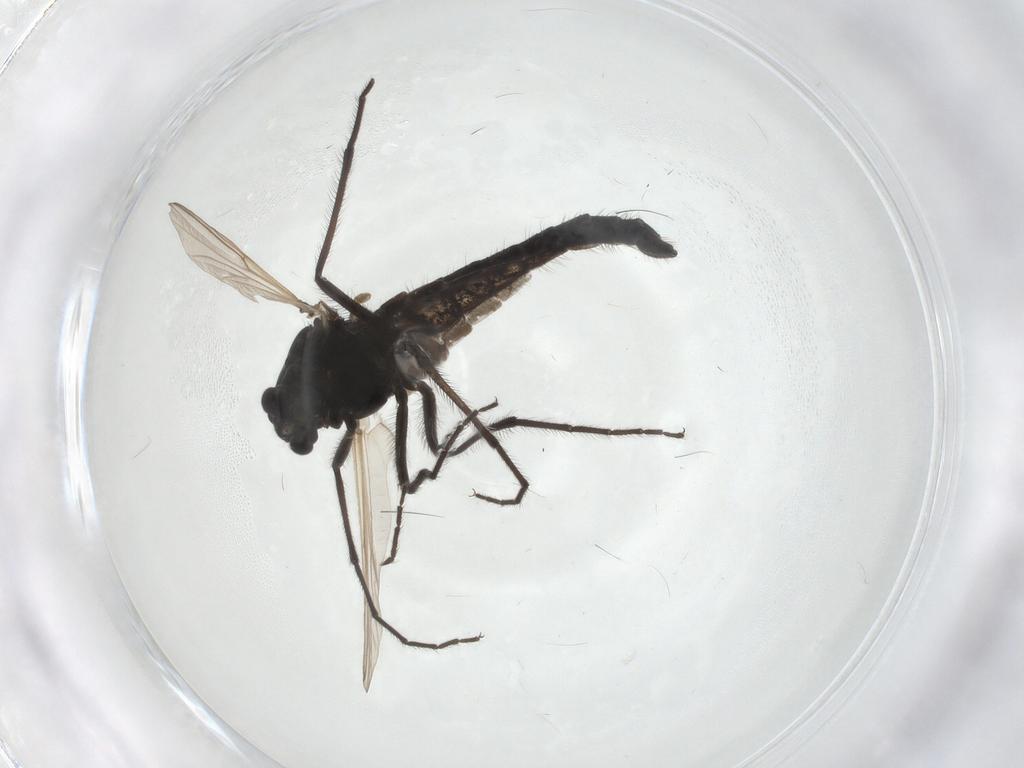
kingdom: Animalia
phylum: Arthropoda
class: Insecta
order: Diptera
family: Chironomidae
